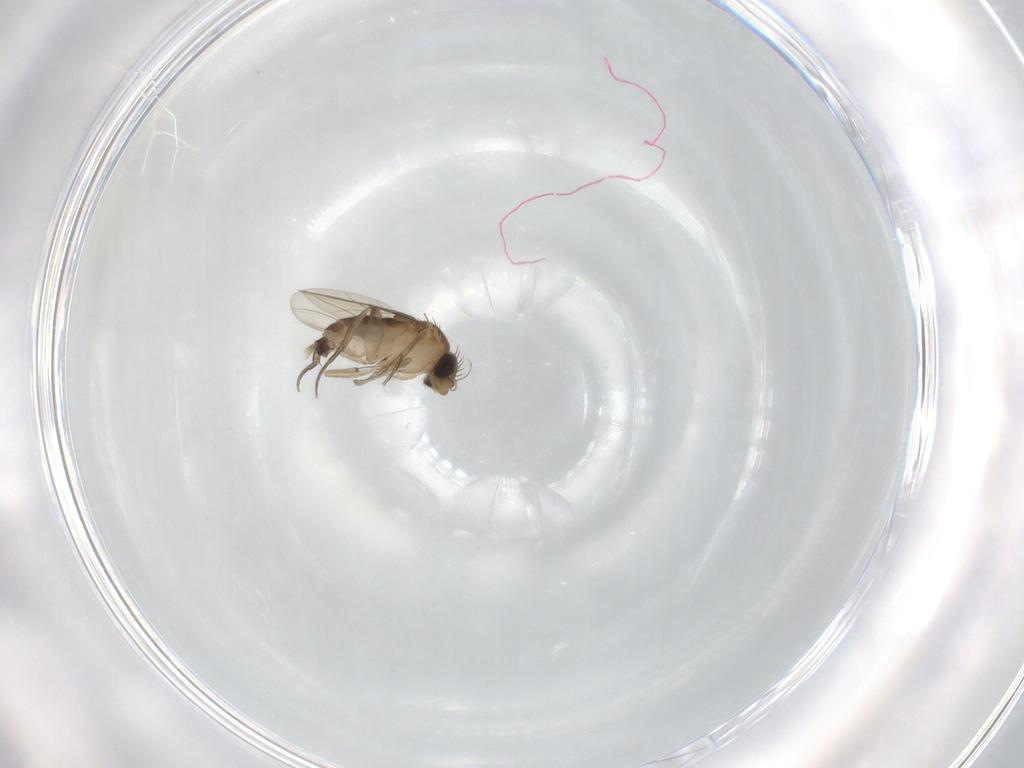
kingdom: Animalia
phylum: Arthropoda
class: Insecta
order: Diptera
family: Phoridae
